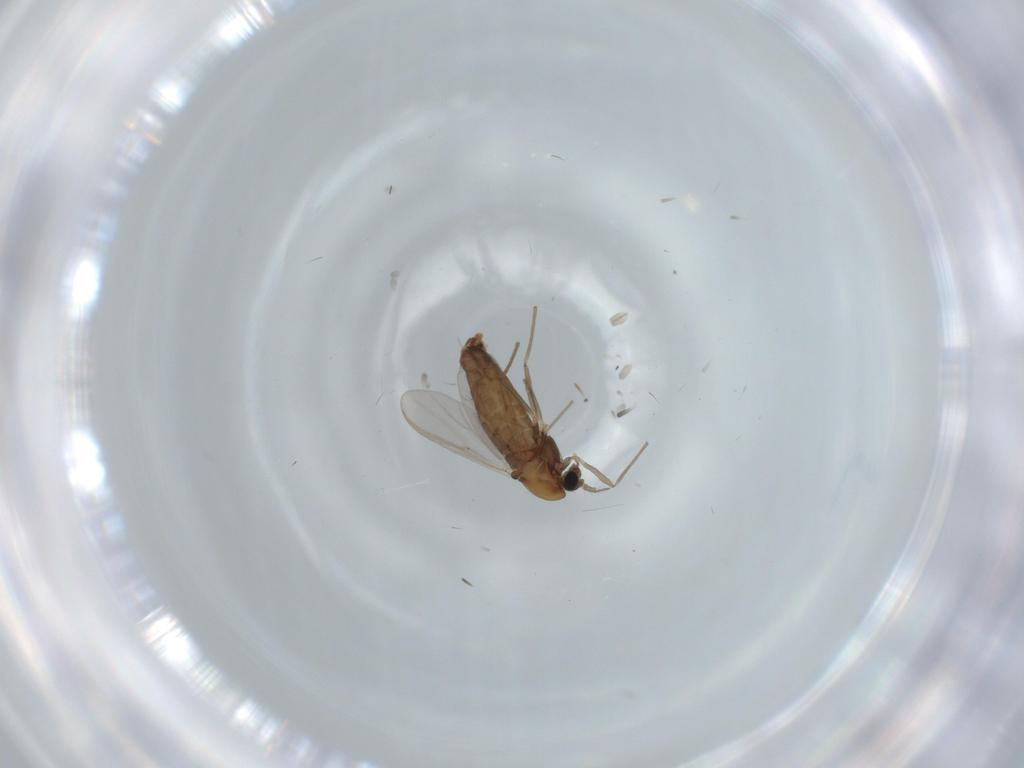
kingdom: Animalia
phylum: Arthropoda
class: Insecta
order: Diptera
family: Chironomidae
